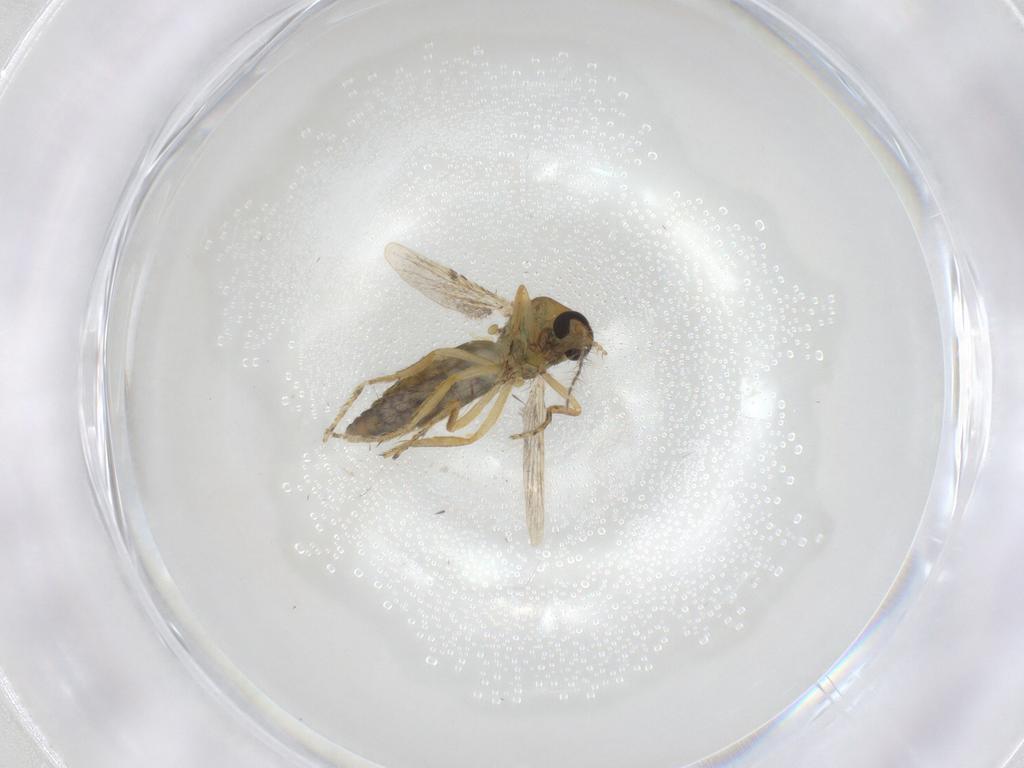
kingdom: Animalia
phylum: Arthropoda
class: Insecta
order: Diptera
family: Ceratopogonidae
